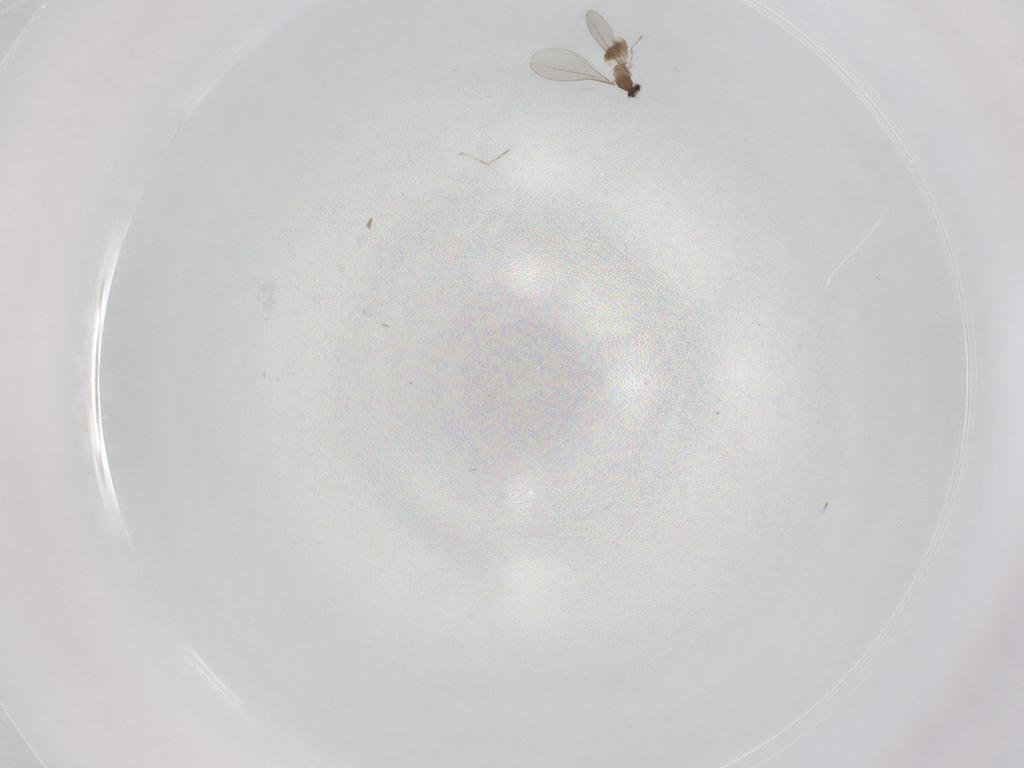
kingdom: Animalia
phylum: Arthropoda
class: Insecta
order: Diptera
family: Cecidomyiidae
